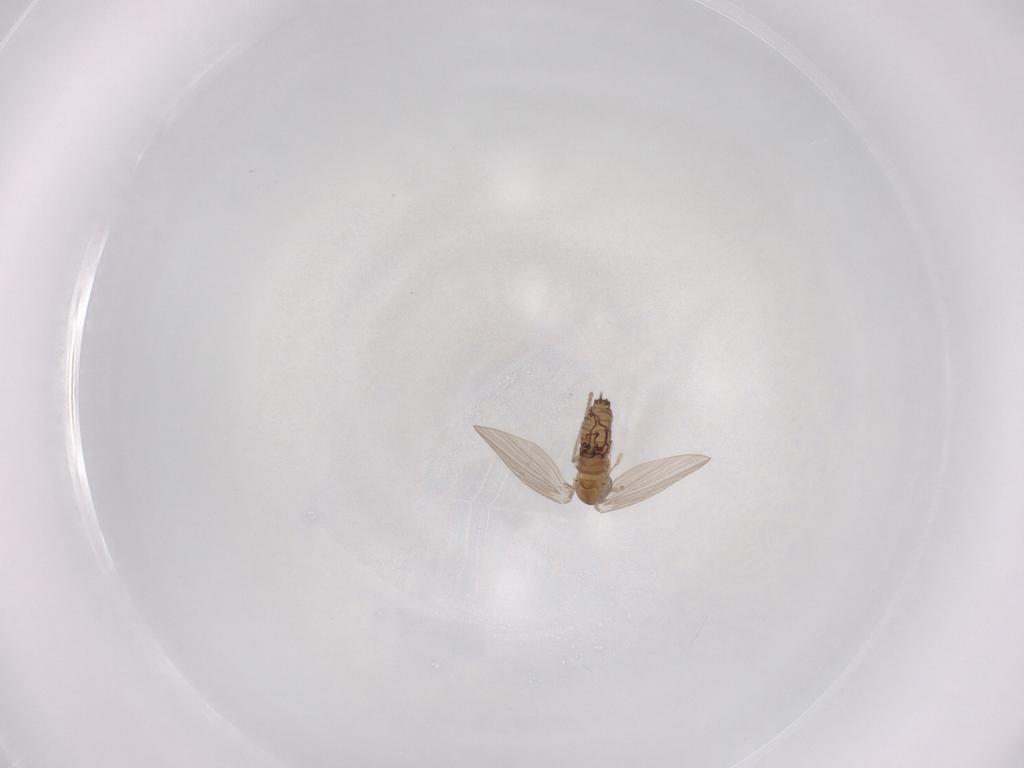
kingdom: Animalia
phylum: Arthropoda
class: Insecta
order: Diptera
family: Psychodidae
